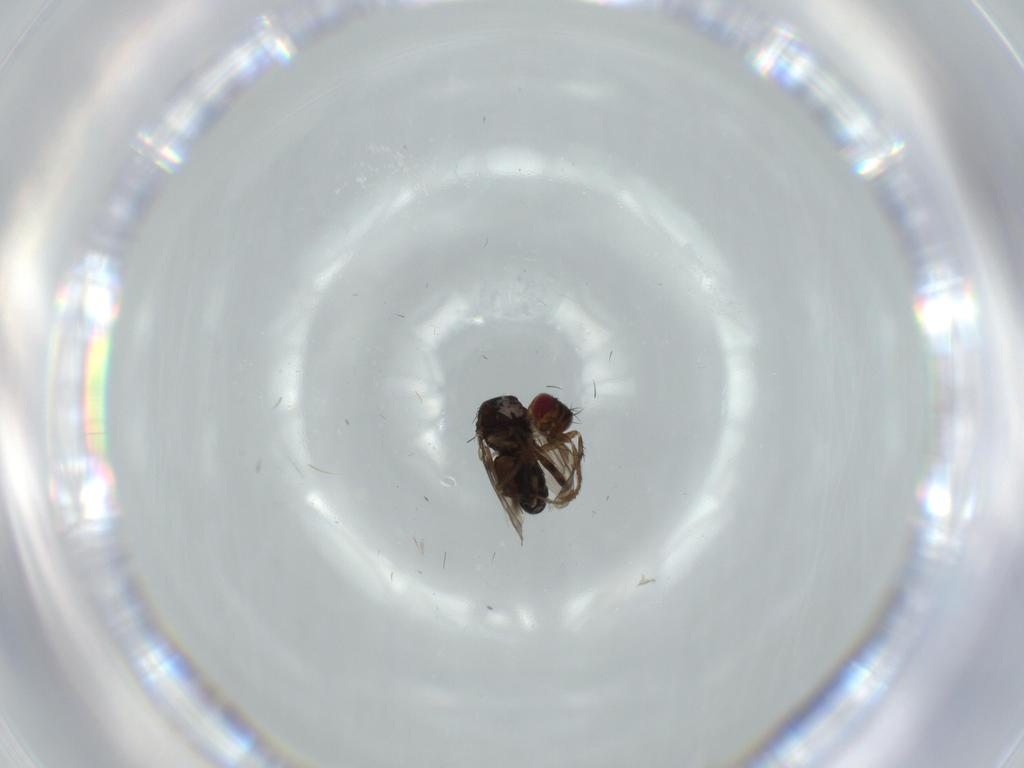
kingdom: Animalia
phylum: Arthropoda
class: Insecta
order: Diptera
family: Sphaeroceridae
